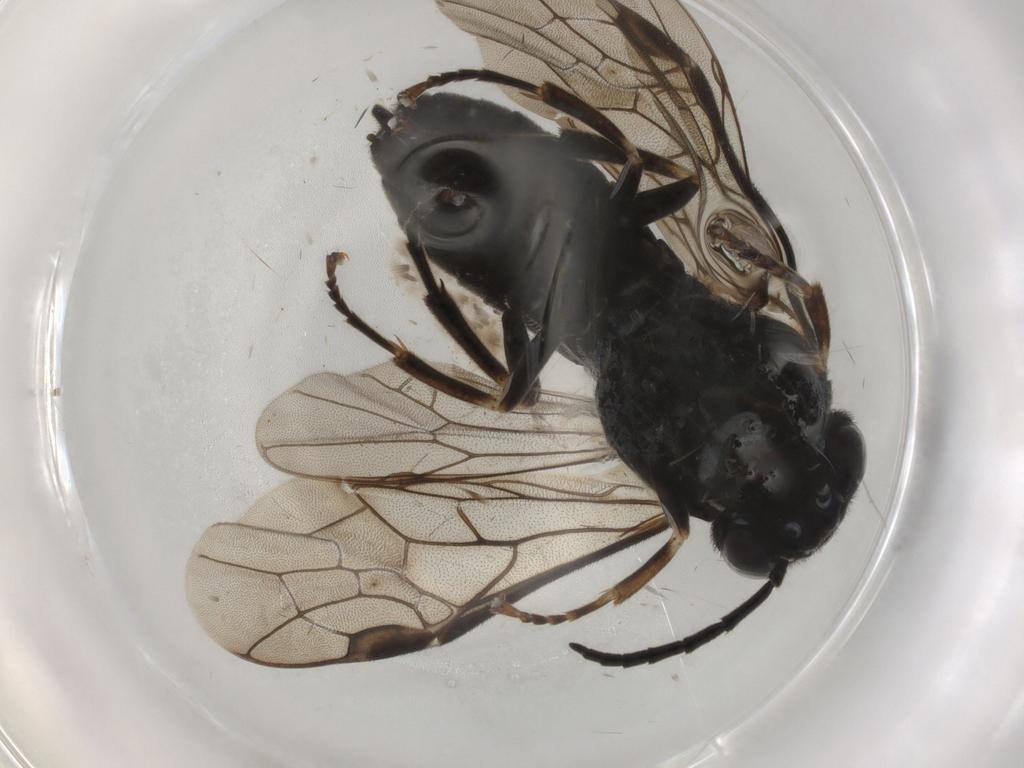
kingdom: Animalia
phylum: Arthropoda
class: Insecta
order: Hymenoptera
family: Tenthredinidae
